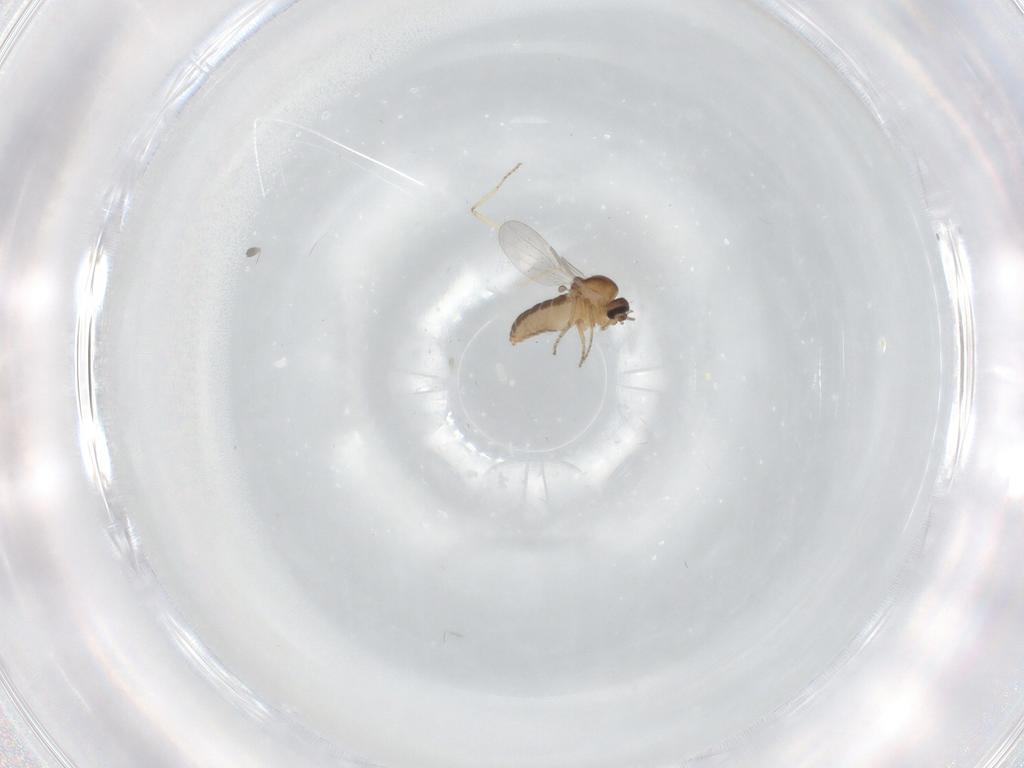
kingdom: Animalia
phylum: Arthropoda
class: Insecta
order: Diptera
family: Ceratopogonidae
